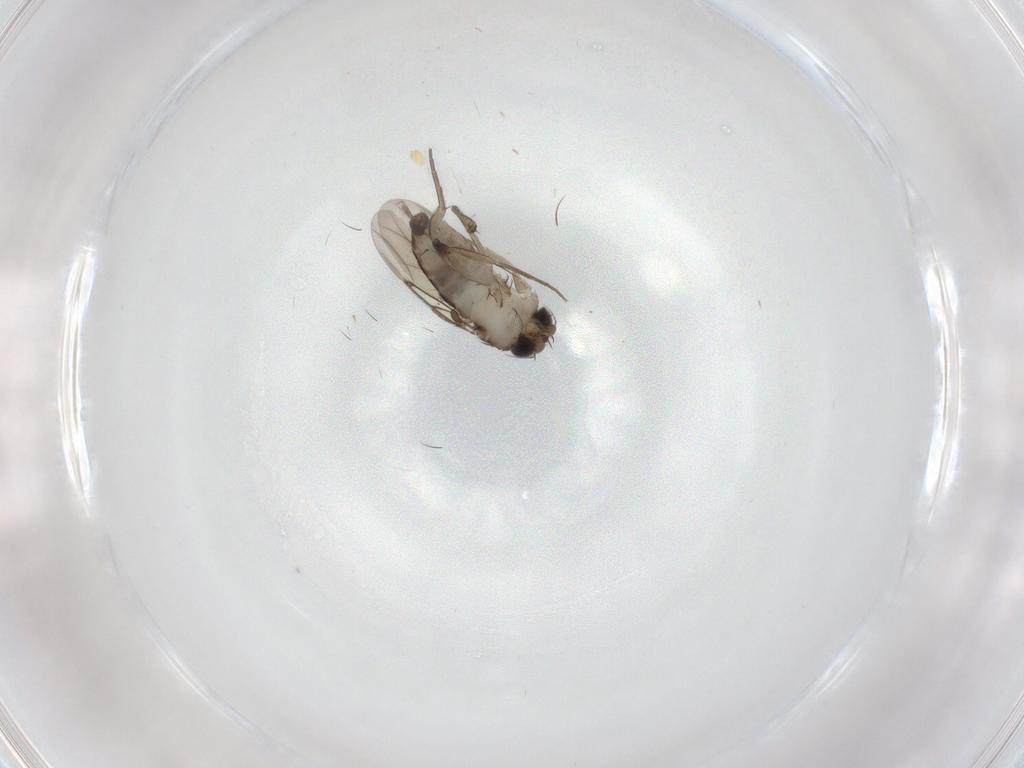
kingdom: Animalia
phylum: Arthropoda
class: Insecta
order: Diptera
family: Phoridae
